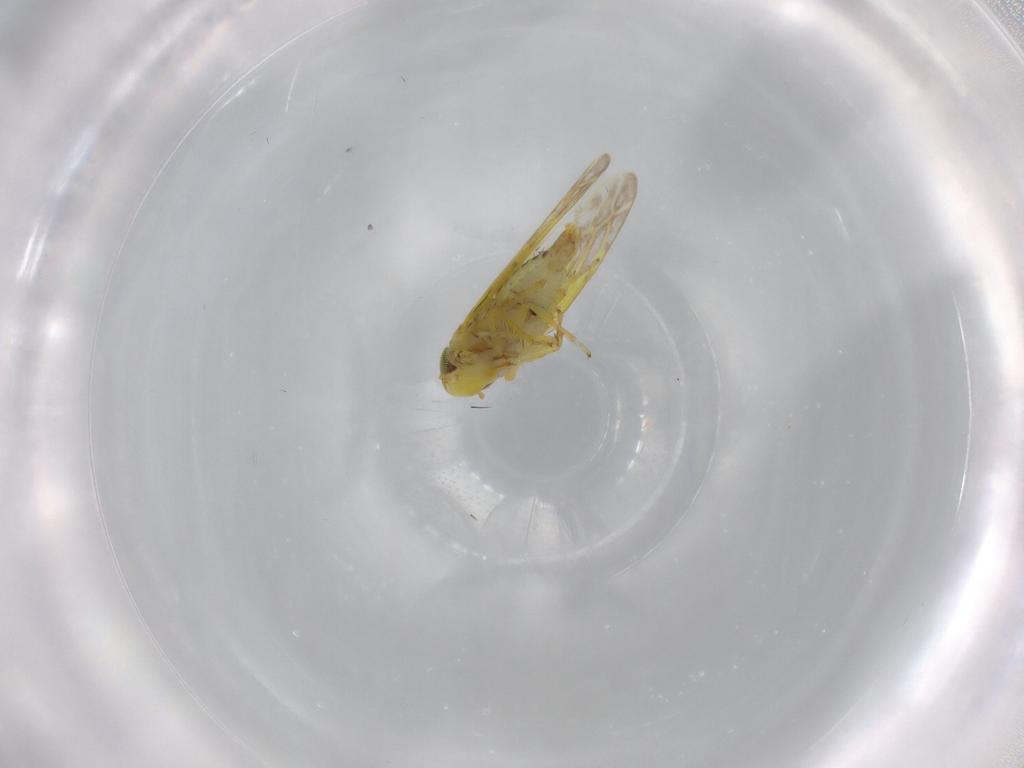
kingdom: Animalia
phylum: Arthropoda
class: Insecta
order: Hemiptera
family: Cicadellidae
